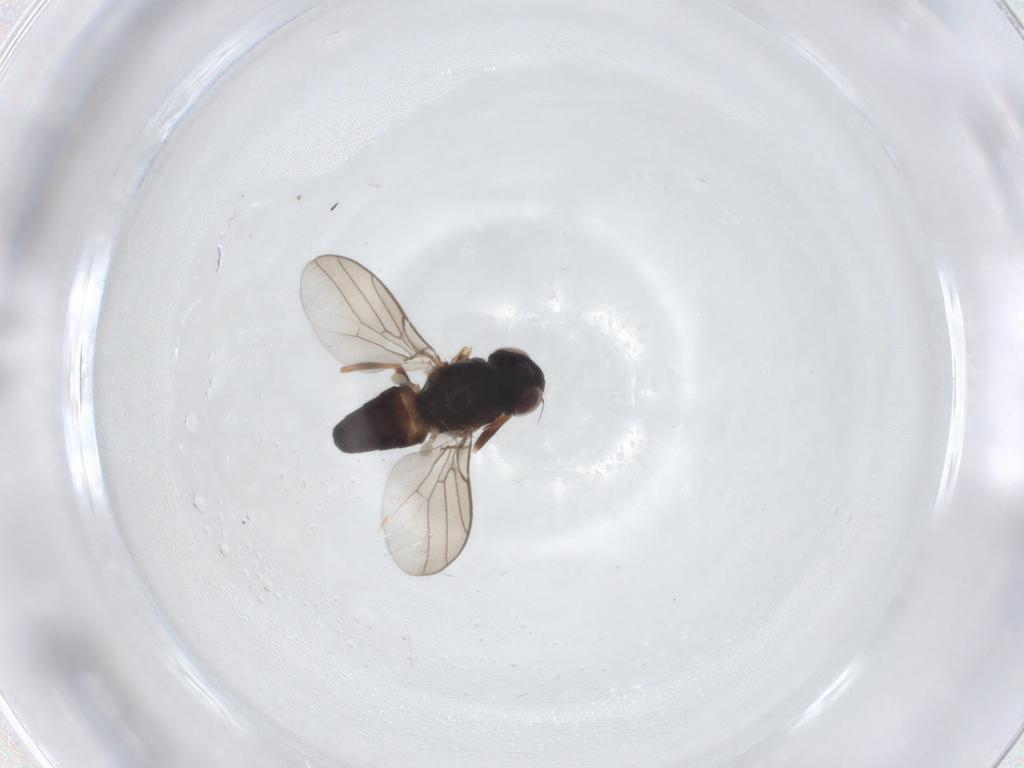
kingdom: Animalia
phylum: Arthropoda
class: Insecta
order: Diptera
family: Chloropidae
